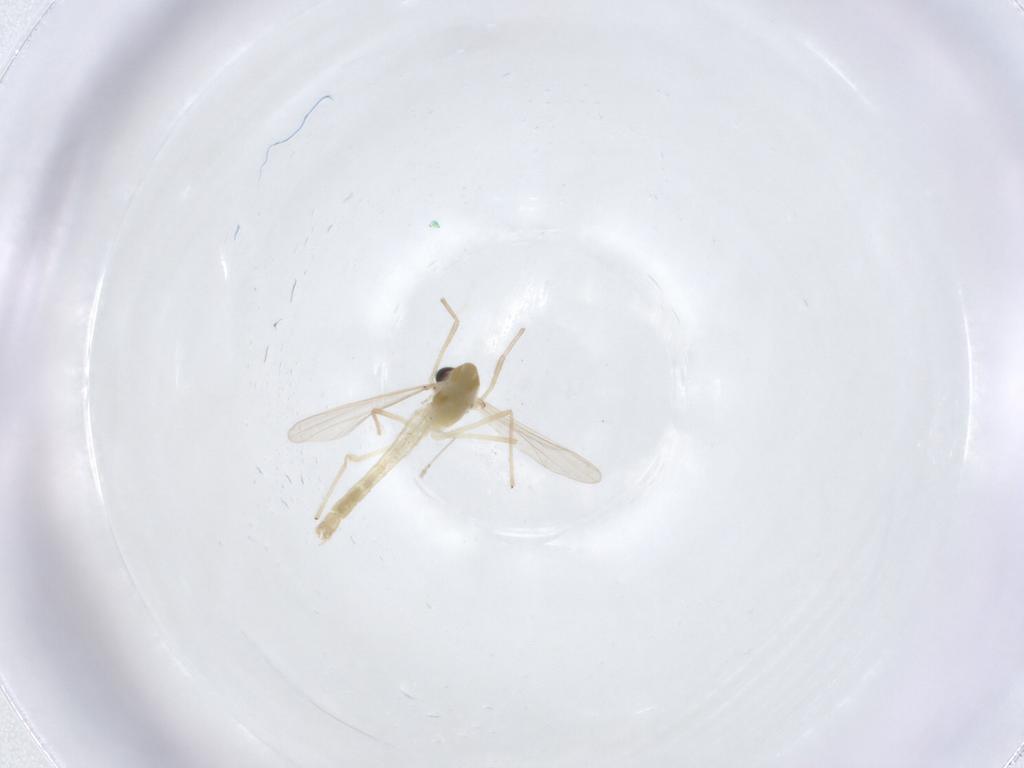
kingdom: Animalia
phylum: Arthropoda
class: Insecta
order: Diptera
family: Chironomidae
